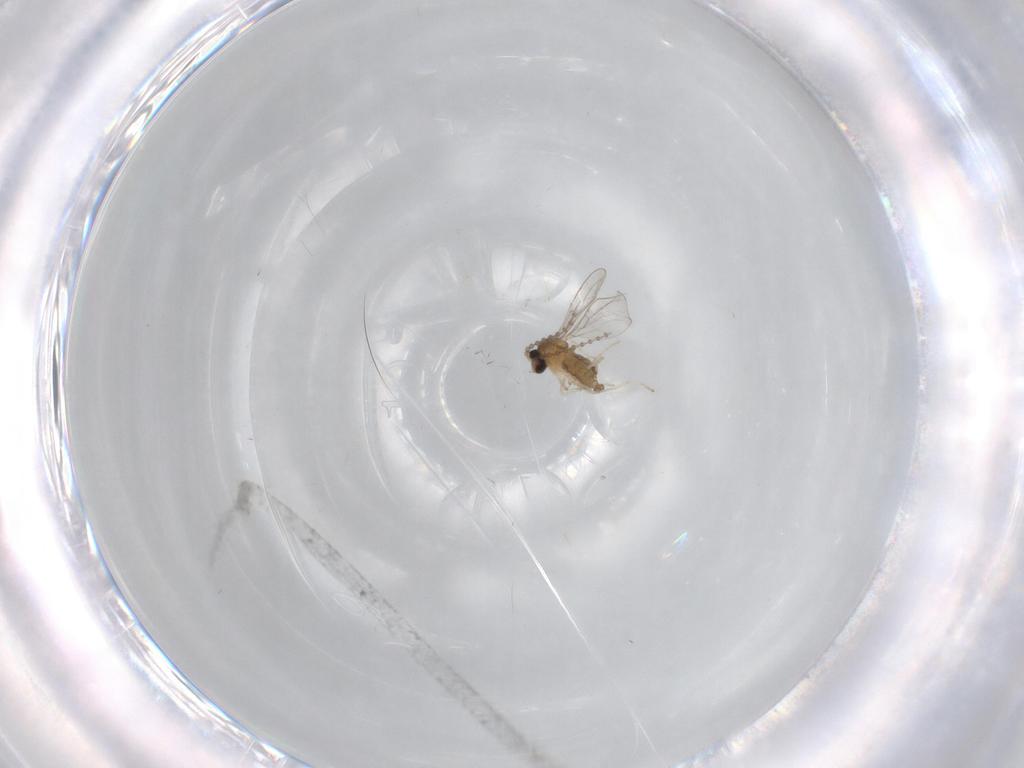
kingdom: Animalia
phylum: Arthropoda
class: Insecta
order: Diptera
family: Cecidomyiidae
